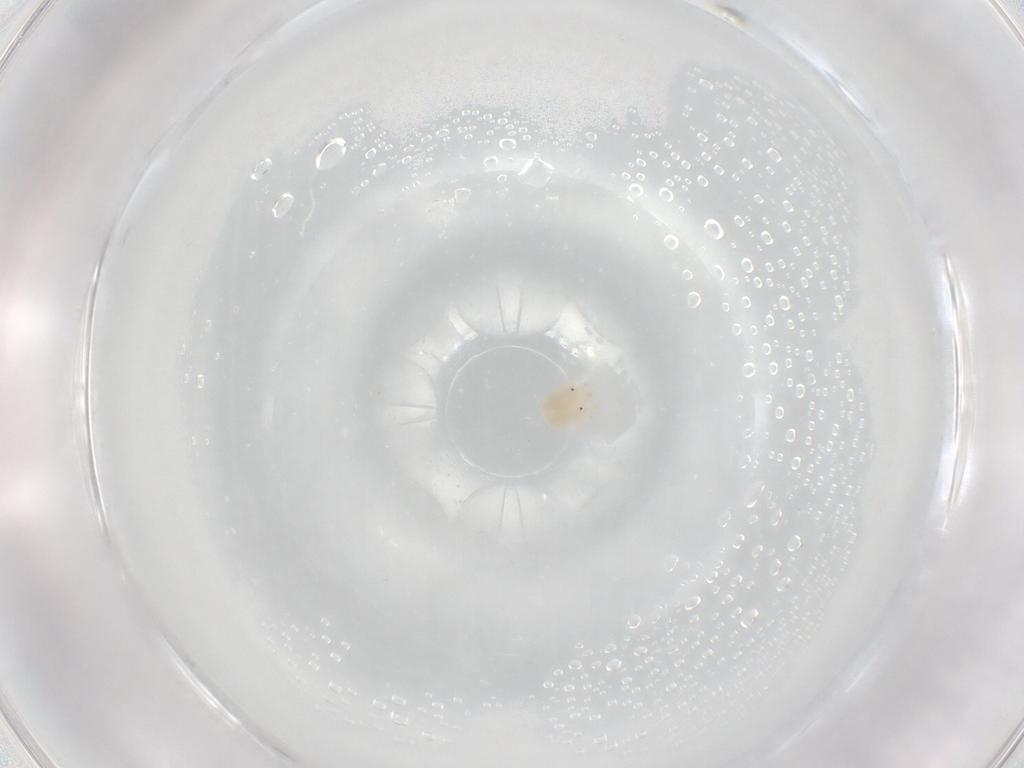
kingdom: Animalia
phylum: Arthropoda
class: Arachnida
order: Trombidiformes
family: Sperchontidae
